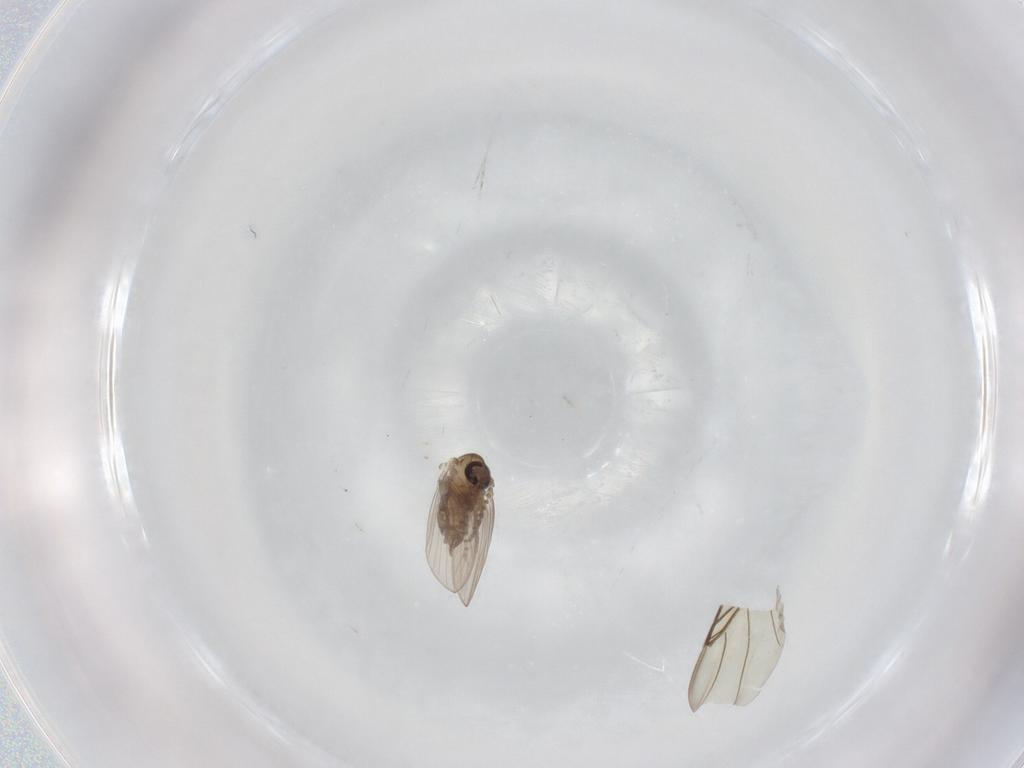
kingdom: Animalia
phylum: Arthropoda
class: Insecta
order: Diptera
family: Psychodidae
